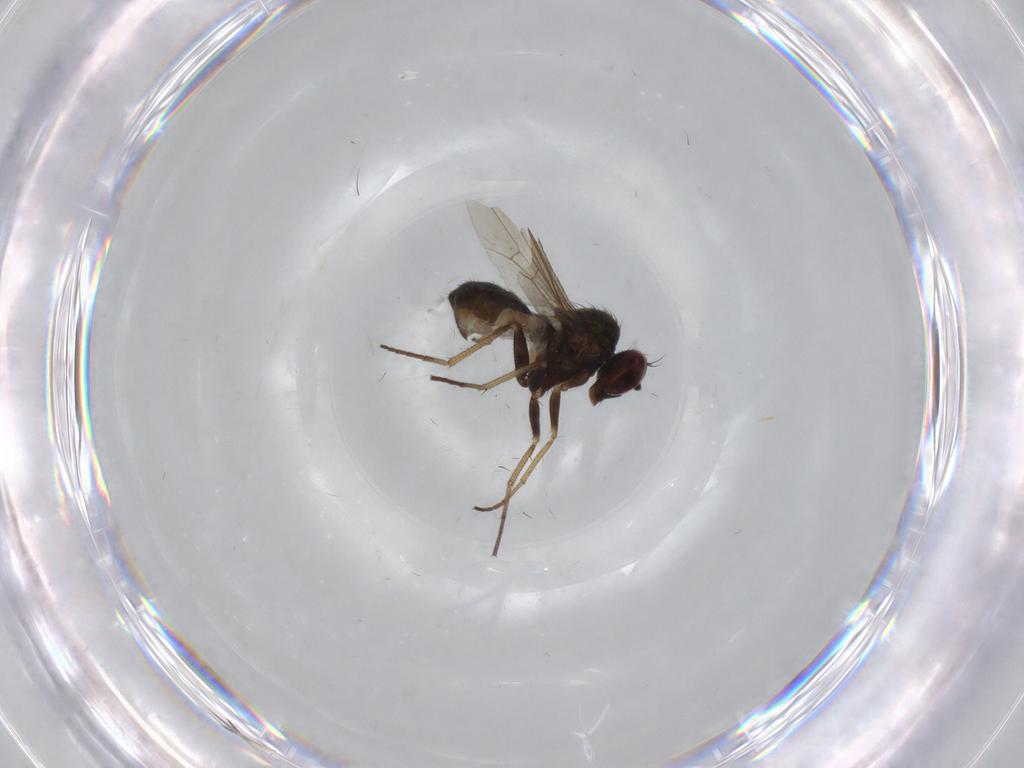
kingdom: Animalia
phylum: Arthropoda
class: Insecta
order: Diptera
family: Dolichopodidae
